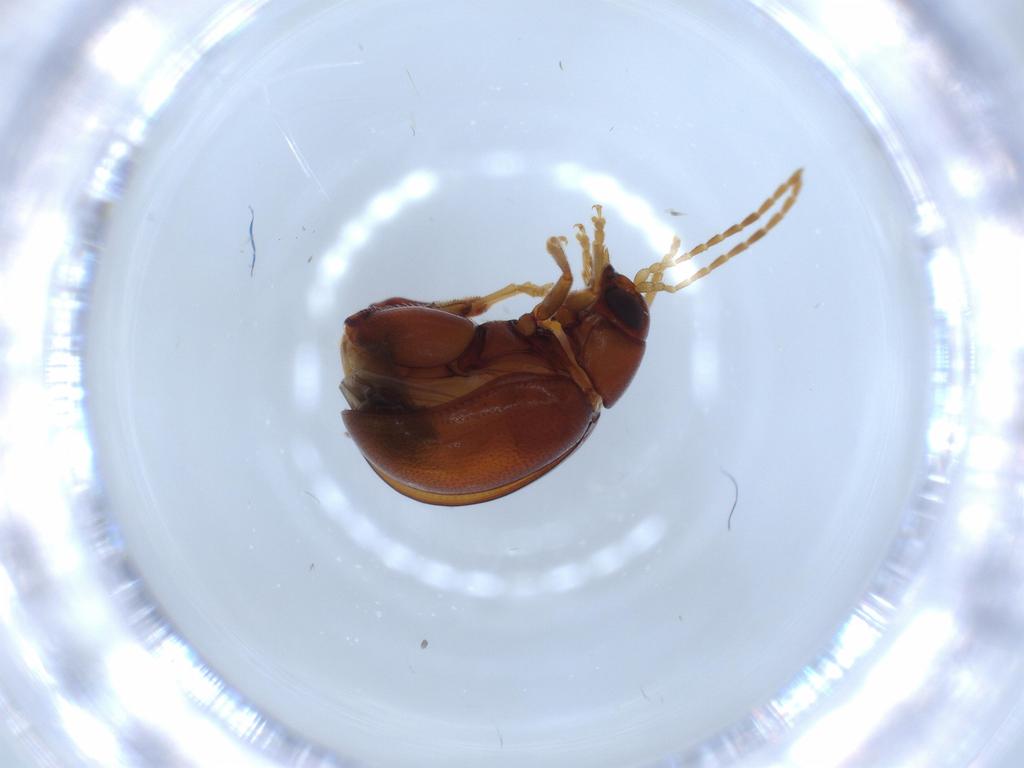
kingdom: Animalia
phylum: Arthropoda
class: Insecta
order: Coleoptera
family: Chrysomelidae
